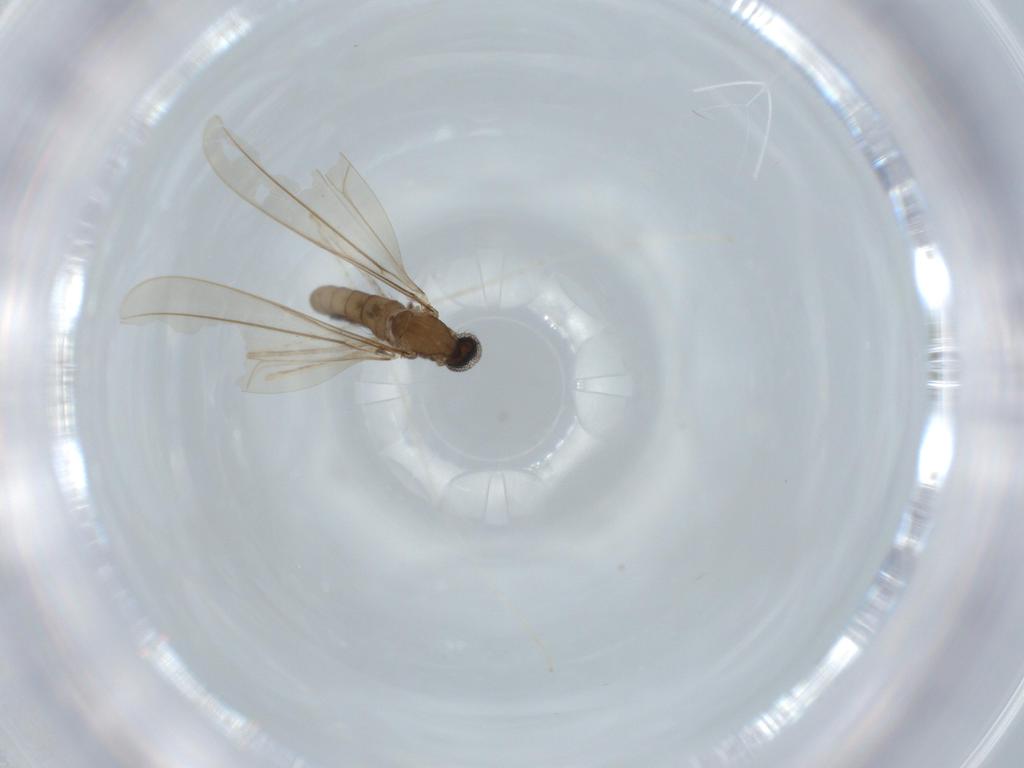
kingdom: Animalia
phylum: Arthropoda
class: Insecta
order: Diptera
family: Cecidomyiidae
